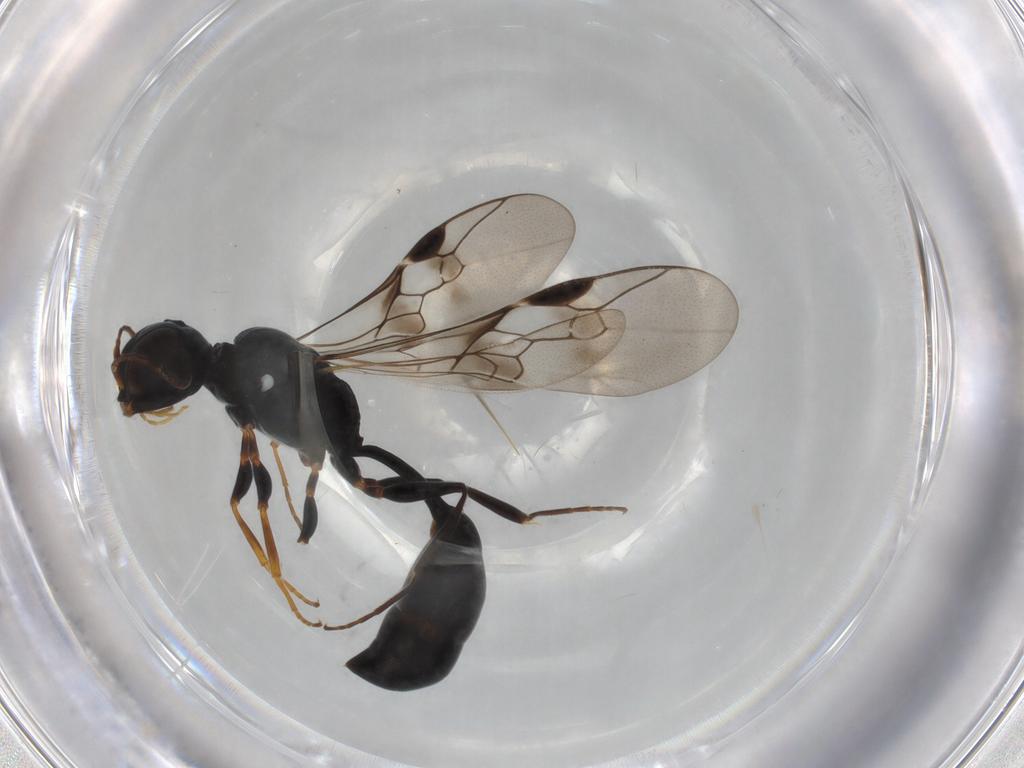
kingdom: Animalia
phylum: Arthropoda
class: Insecta
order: Hymenoptera
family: Pemphredonidae
